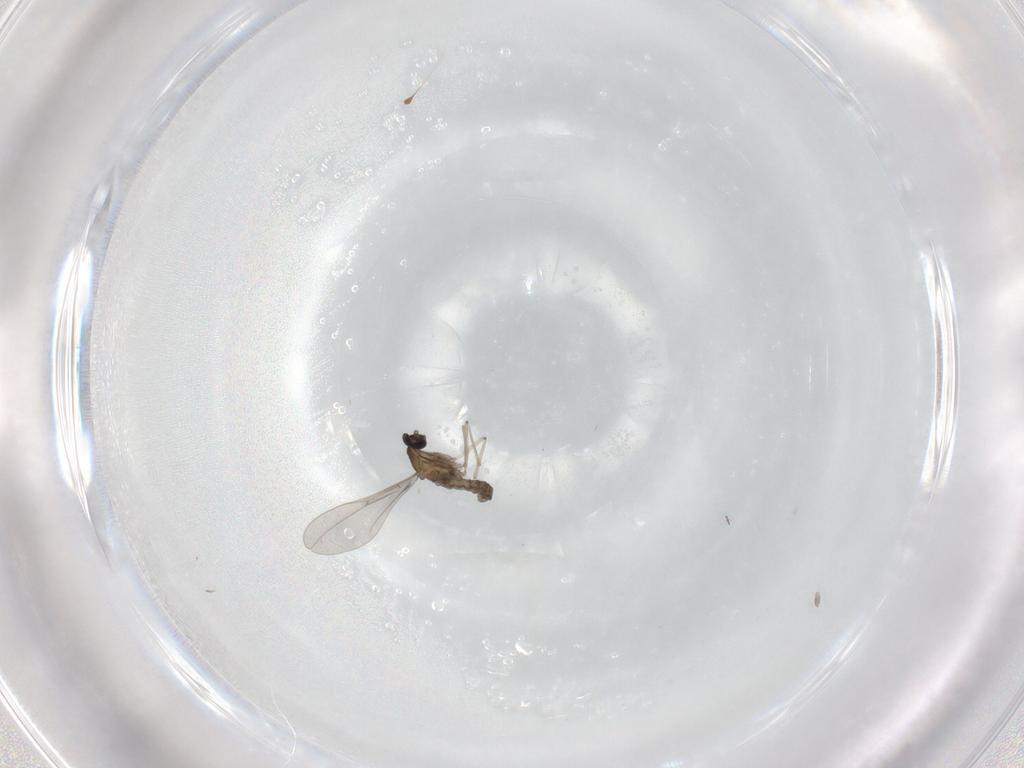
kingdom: Animalia
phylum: Arthropoda
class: Insecta
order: Diptera
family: Cecidomyiidae
